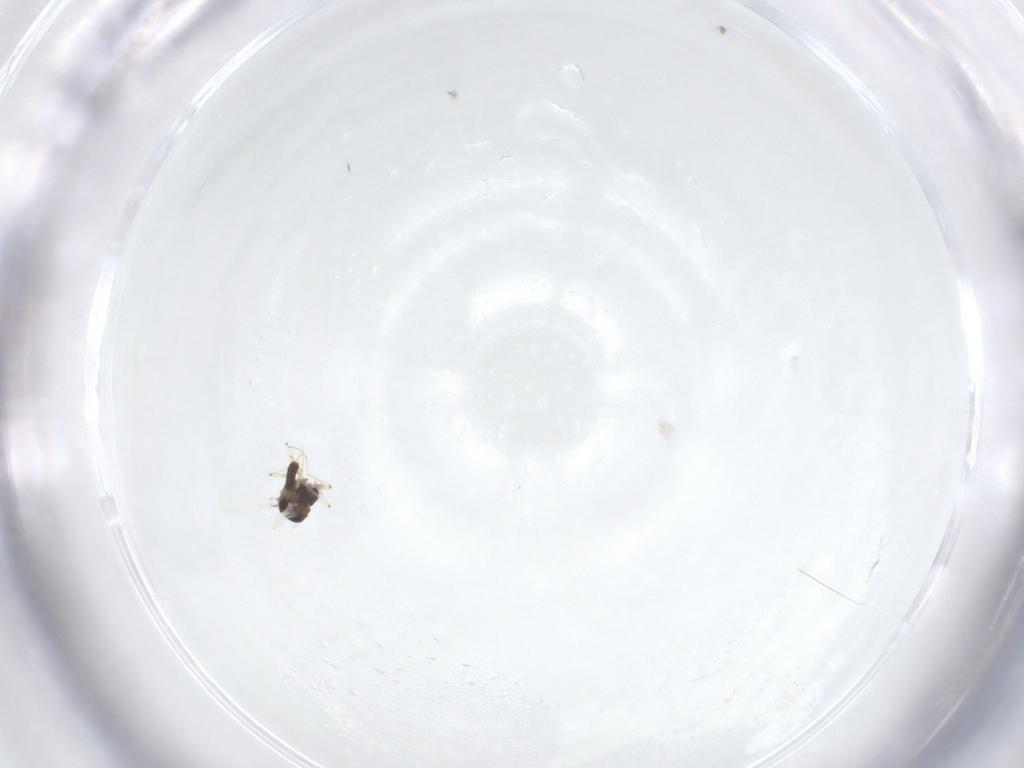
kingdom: Animalia
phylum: Arthropoda
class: Insecta
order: Diptera
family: Chironomidae
